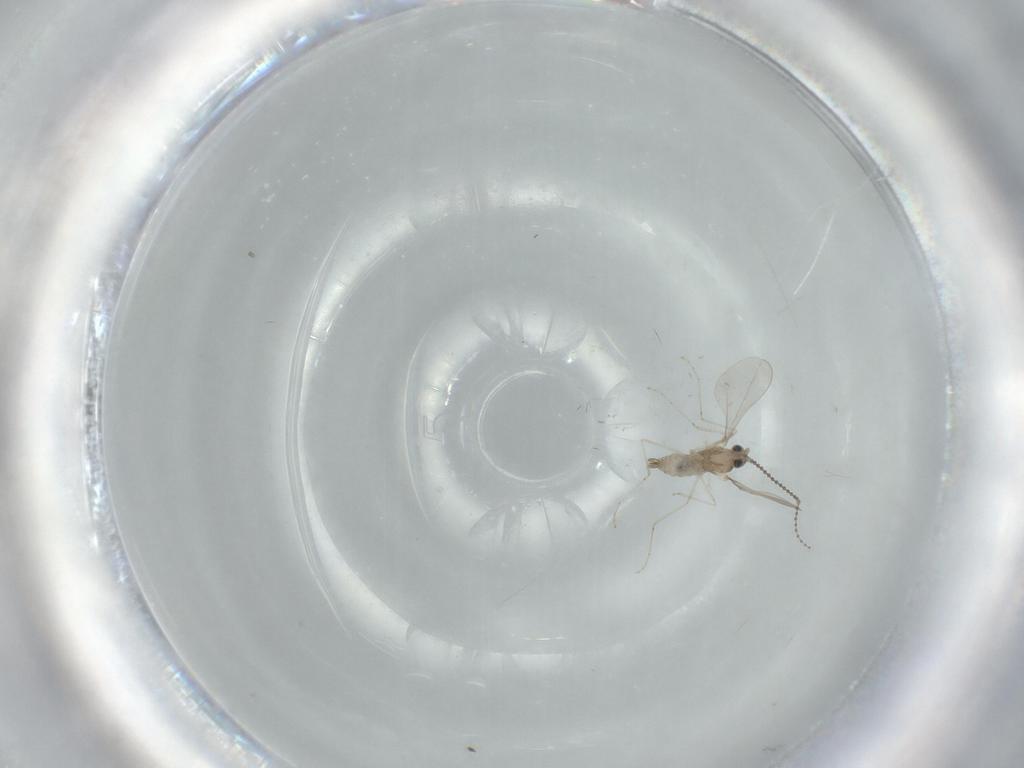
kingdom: Animalia
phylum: Arthropoda
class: Insecta
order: Diptera
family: Cecidomyiidae
